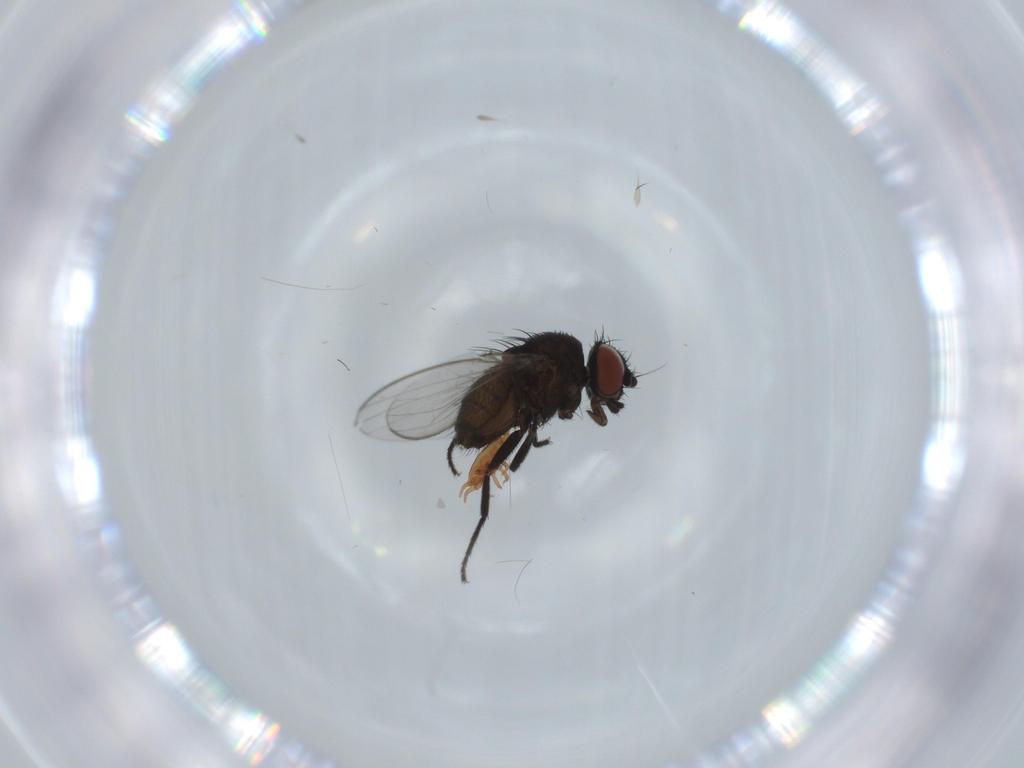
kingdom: Animalia
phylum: Arthropoda
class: Insecta
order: Diptera
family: Milichiidae
